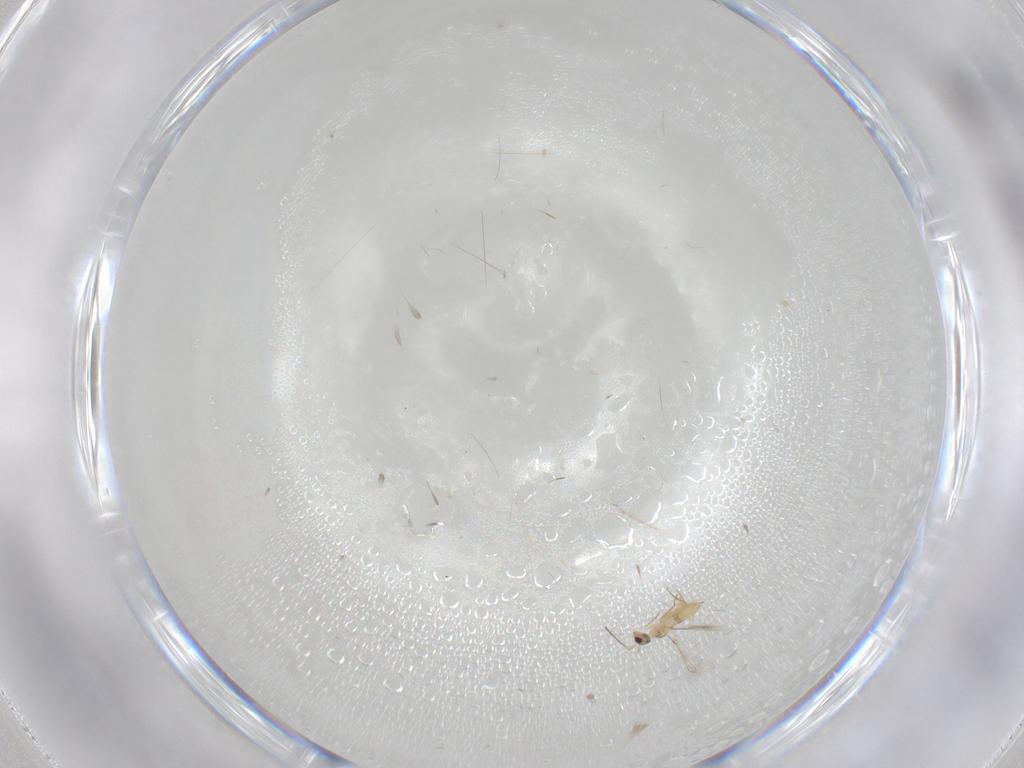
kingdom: Animalia
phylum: Arthropoda
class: Insecta
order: Hymenoptera
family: Mymaridae
